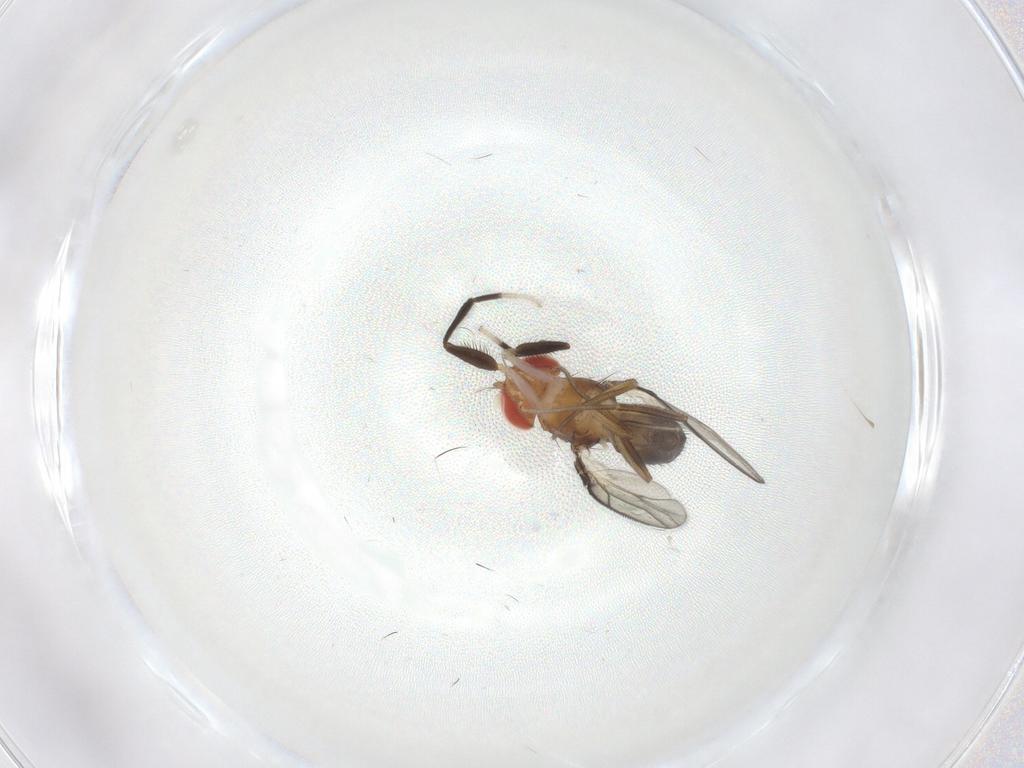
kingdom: Animalia
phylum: Arthropoda
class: Insecta
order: Diptera
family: Drosophilidae
